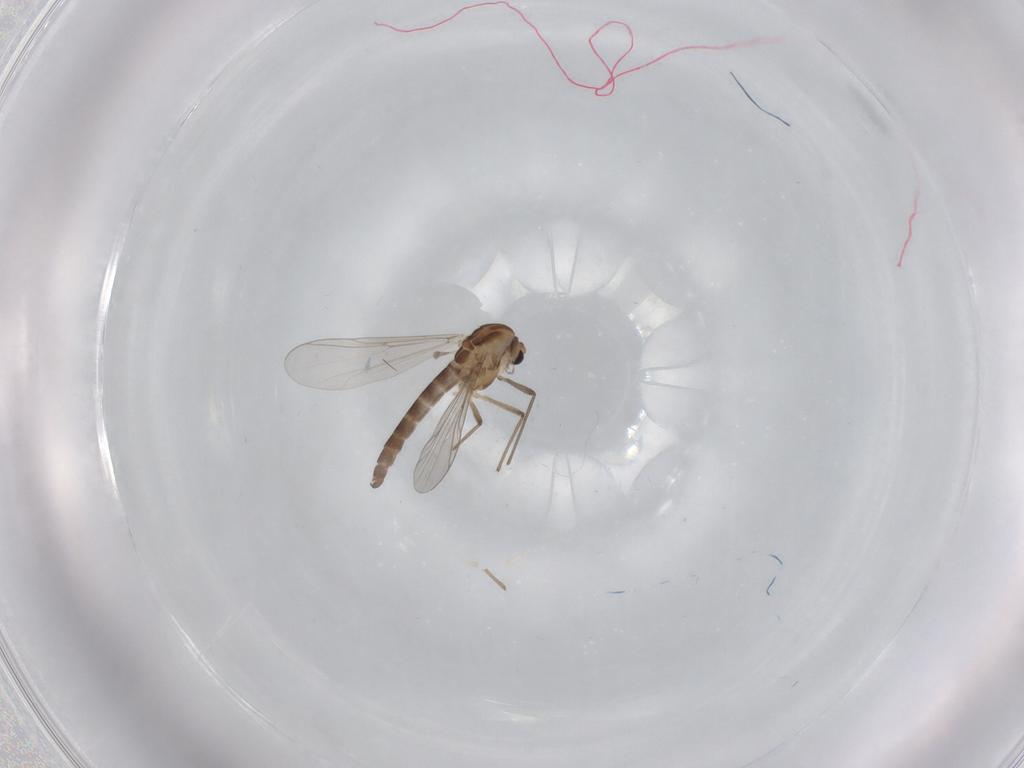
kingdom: Animalia
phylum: Arthropoda
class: Insecta
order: Diptera
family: Chironomidae
